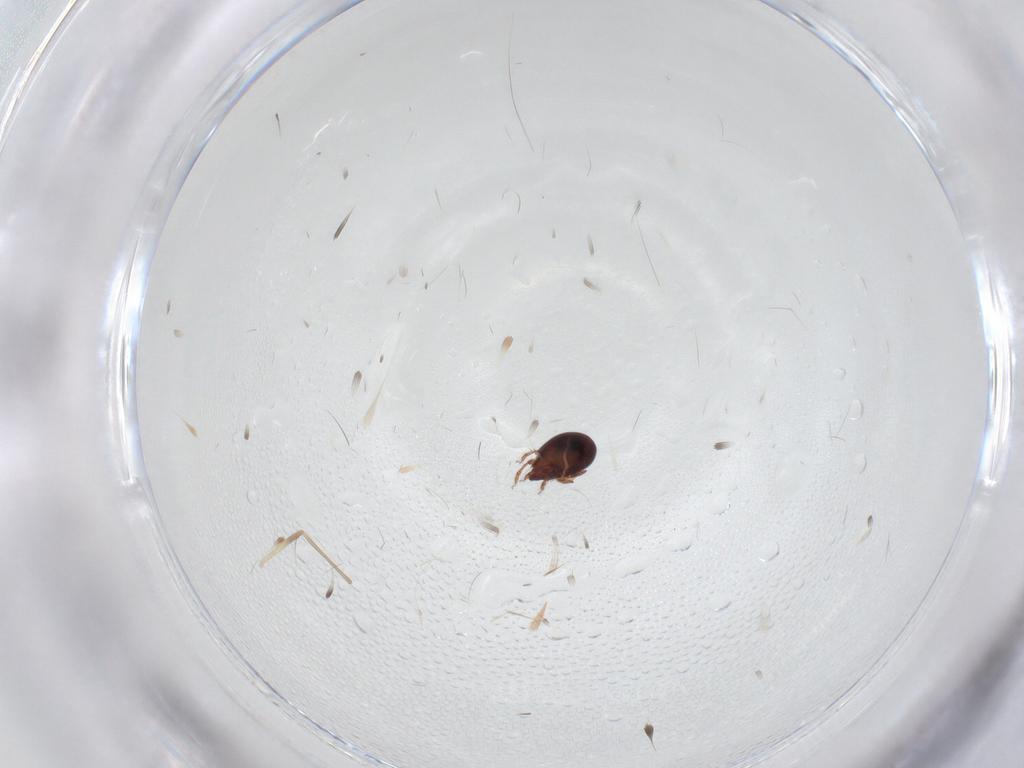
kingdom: Animalia
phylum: Arthropoda
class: Arachnida
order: Sarcoptiformes
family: Ceratozetidae
